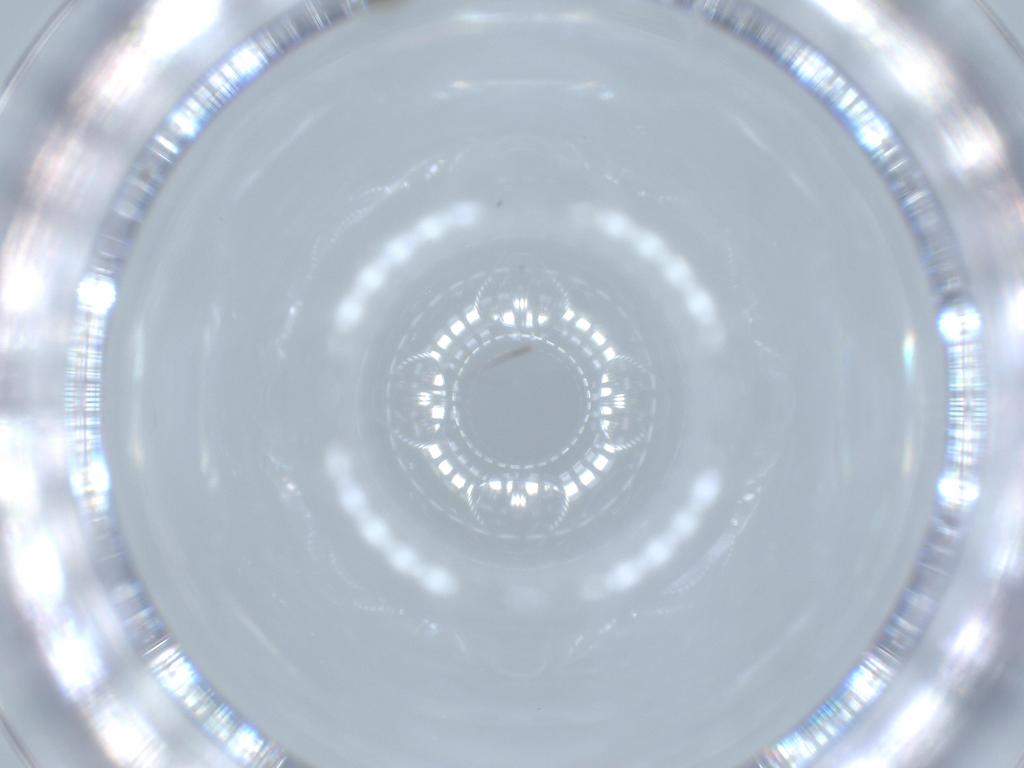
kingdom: Animalia
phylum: Arthropoda
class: Insecta
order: Diptera
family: Cecidomyiidae
